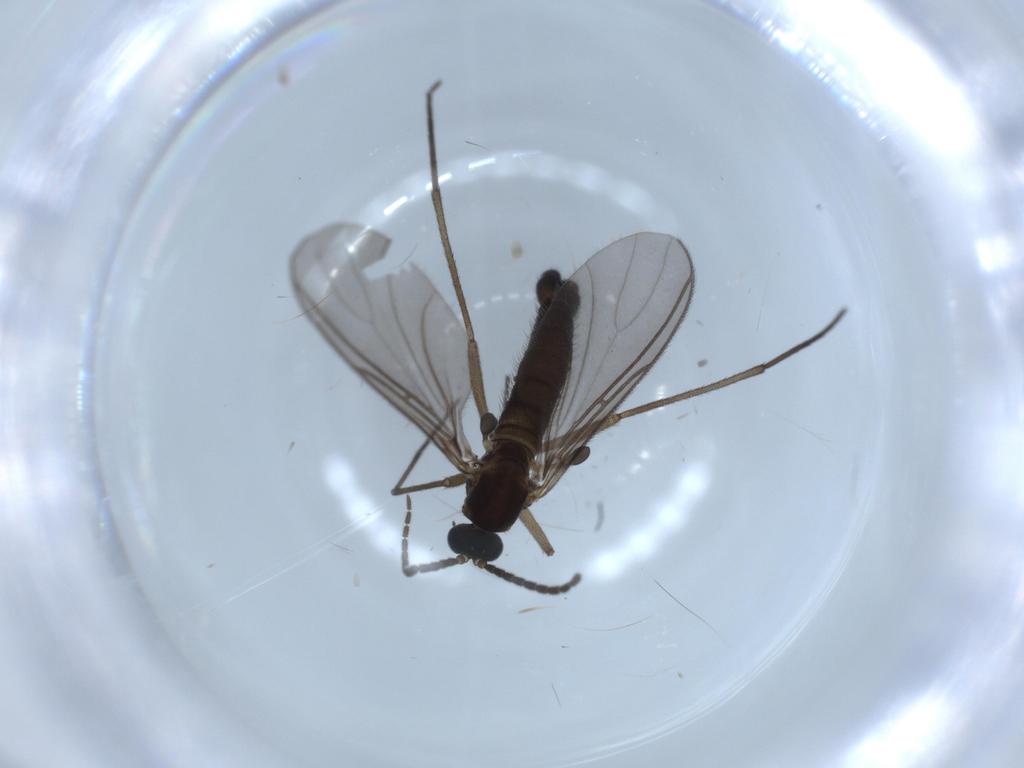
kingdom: Animalia
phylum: Arthropoda
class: Insecta
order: Diptera
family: Sciaridae
